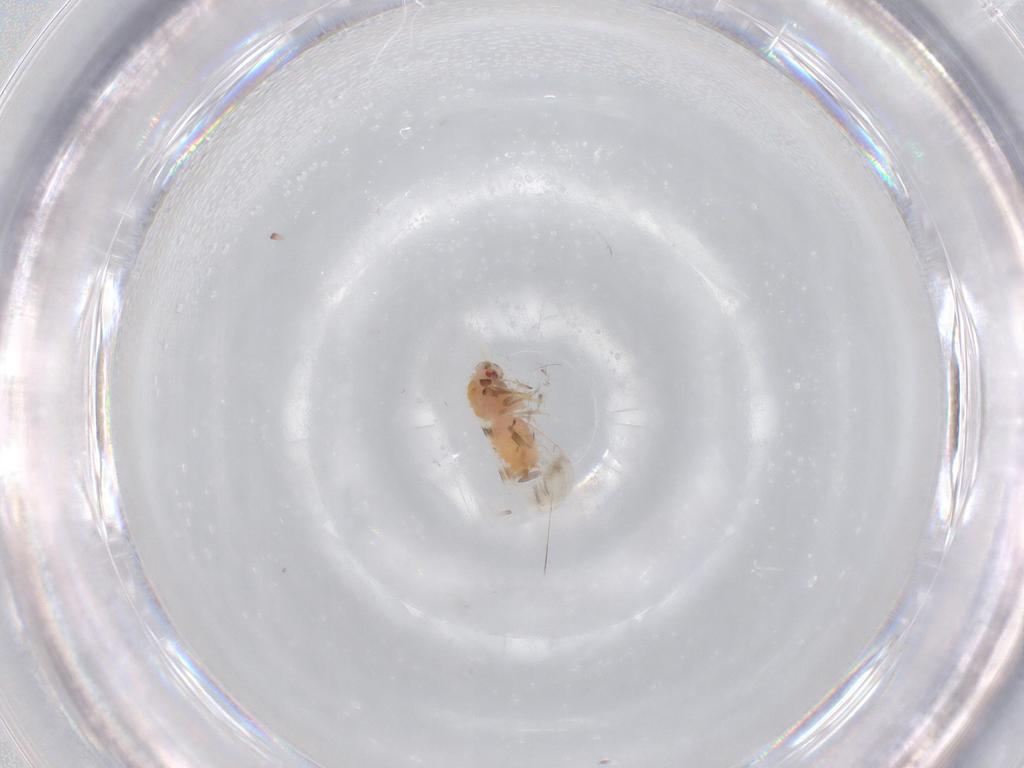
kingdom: Animalia
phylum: Arthropoda
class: Insecta
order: Hemiptera
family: Aleyrodidae
